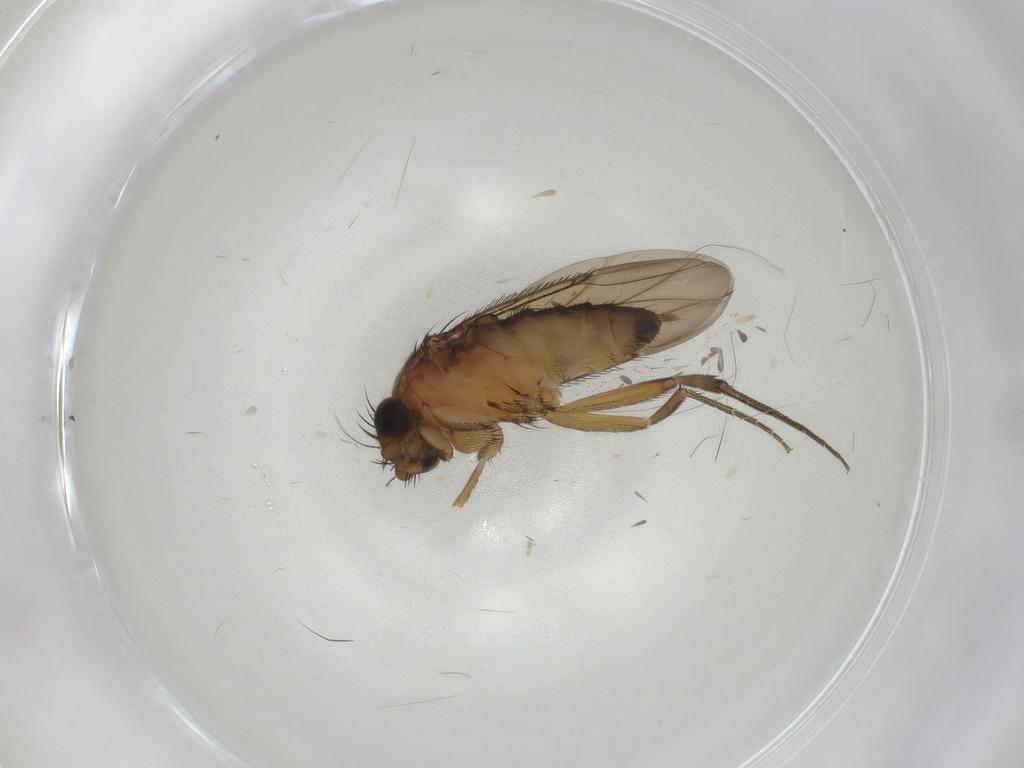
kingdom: Animalia
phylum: Arthropoda
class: Insecta
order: Diptera
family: Phoridae
